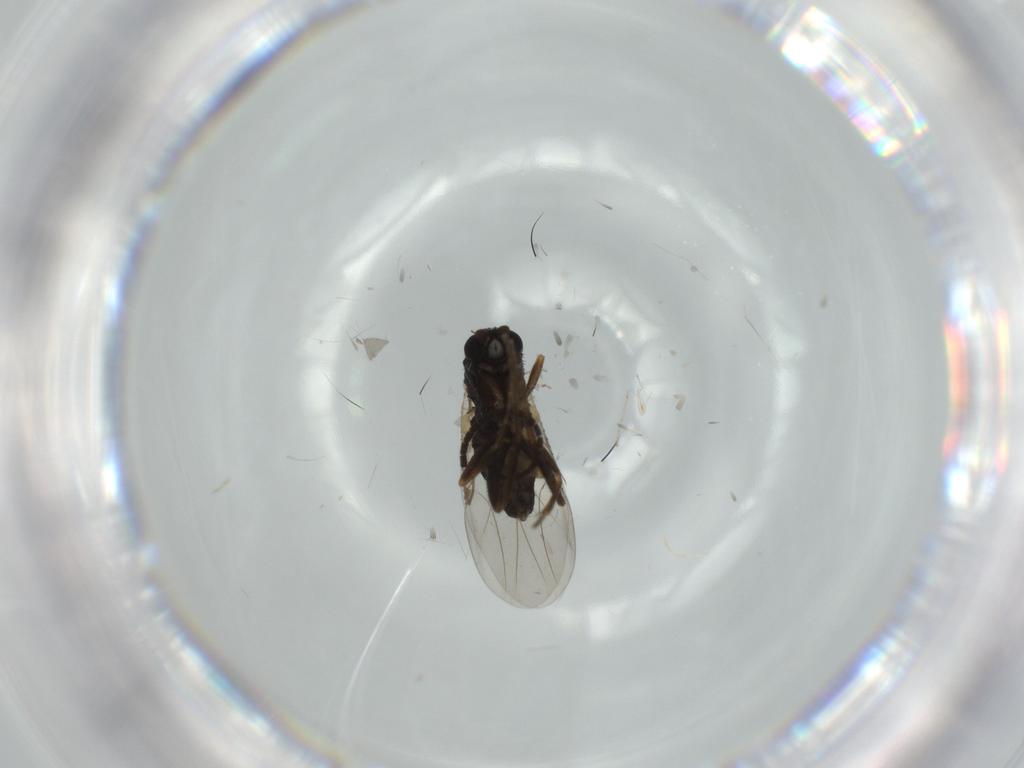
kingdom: Animalia
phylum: Arthropoda
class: Insecta
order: Diptera
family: Phoridae
